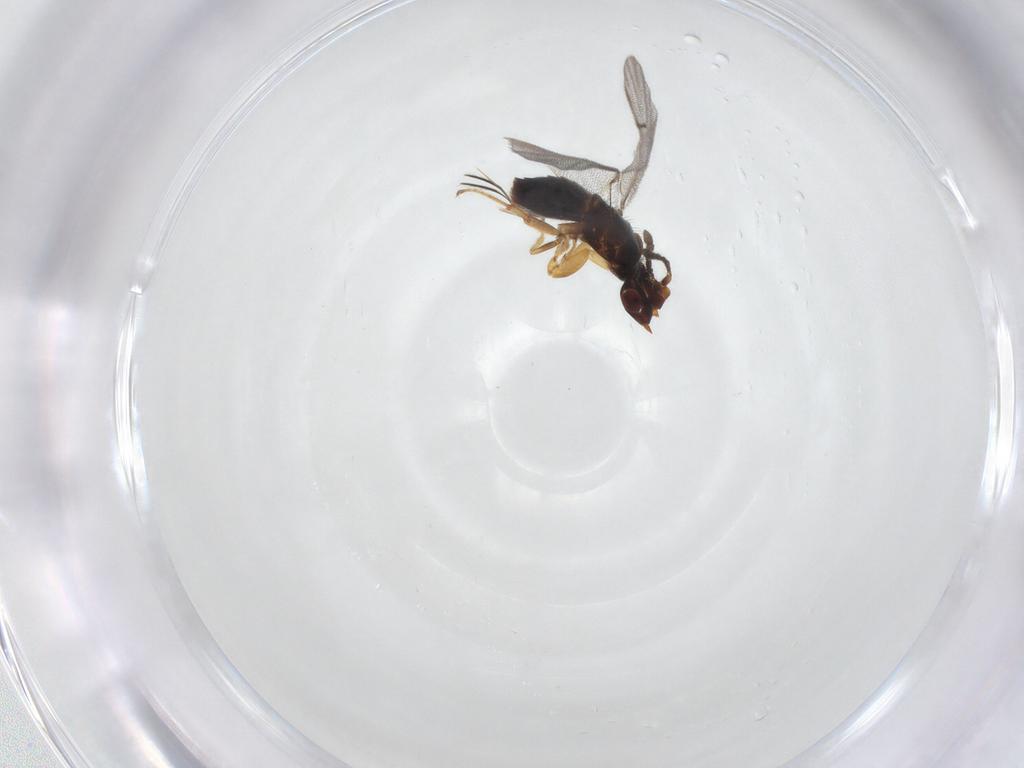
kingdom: Animalia
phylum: Arthropoda
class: Insecta
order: Hymenoptera
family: Agaonidae
